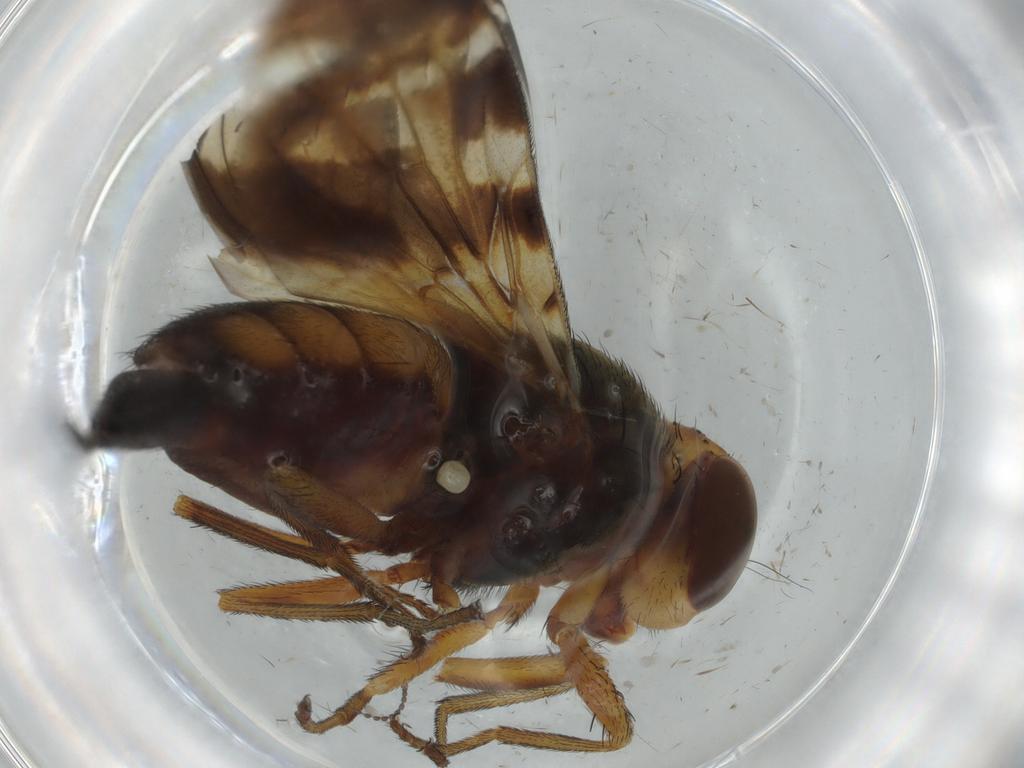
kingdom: Animalia
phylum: Arthropoda
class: Insecta
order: Diptera
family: Ulidiidae
